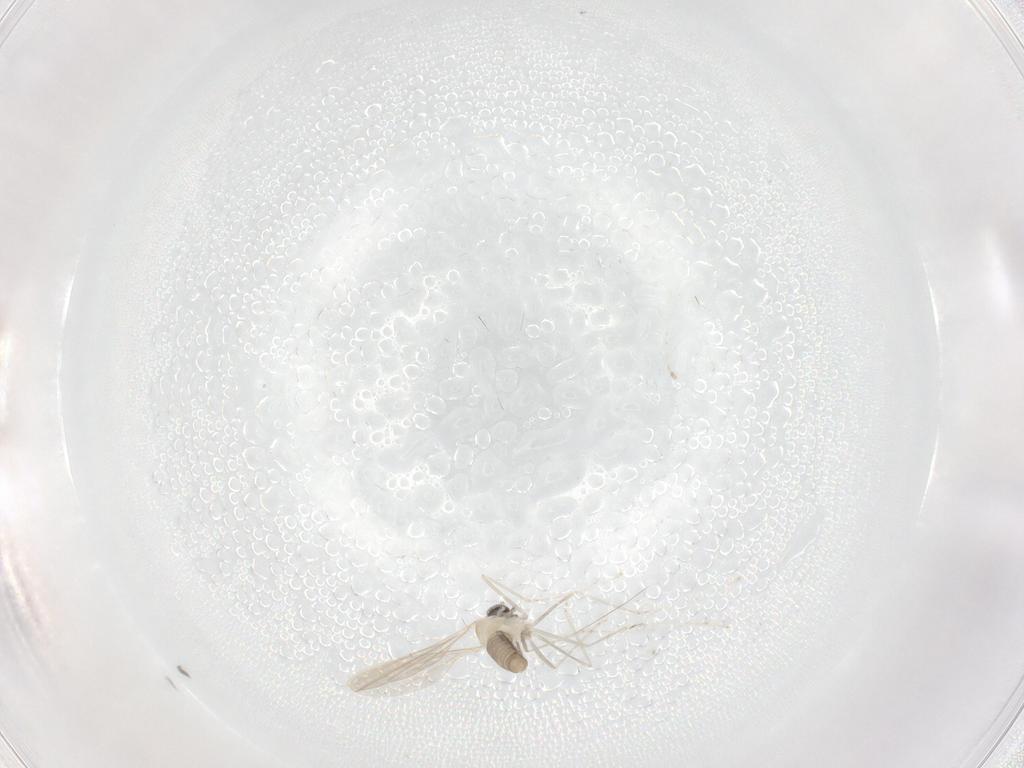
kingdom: Animalia
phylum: Arthropoda
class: Insecta
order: Diptera
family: Cecidomyiidae
